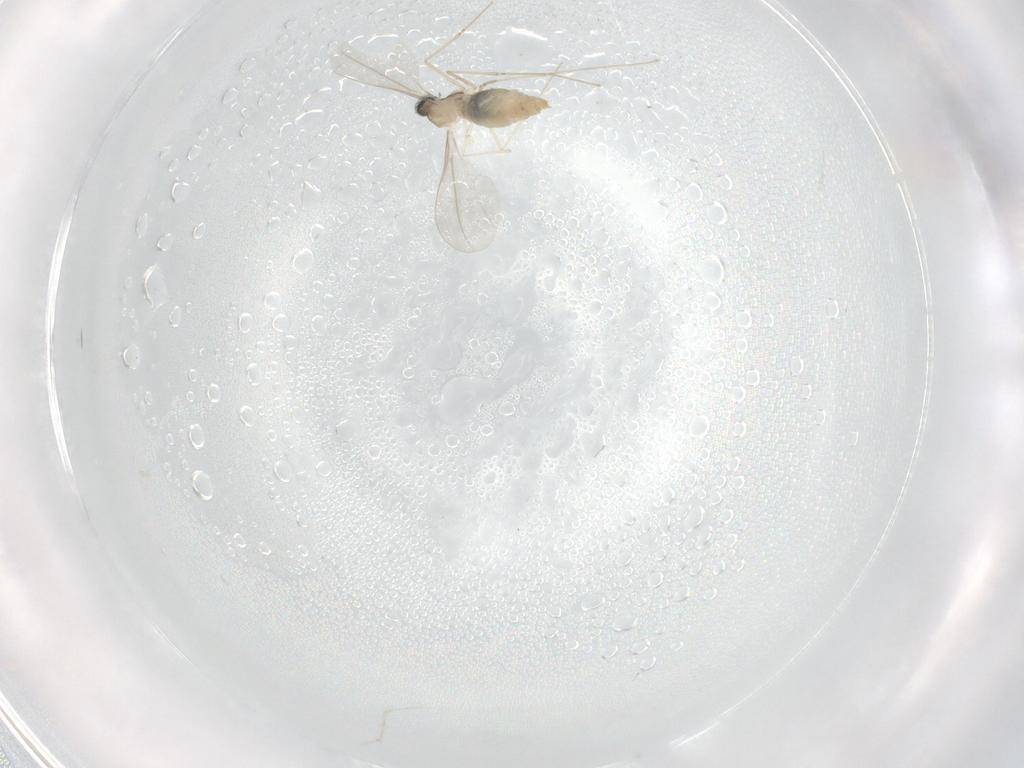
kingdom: Animalia
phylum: Arthropoda
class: Insecta
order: Diptera
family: Cecidomyiidae
